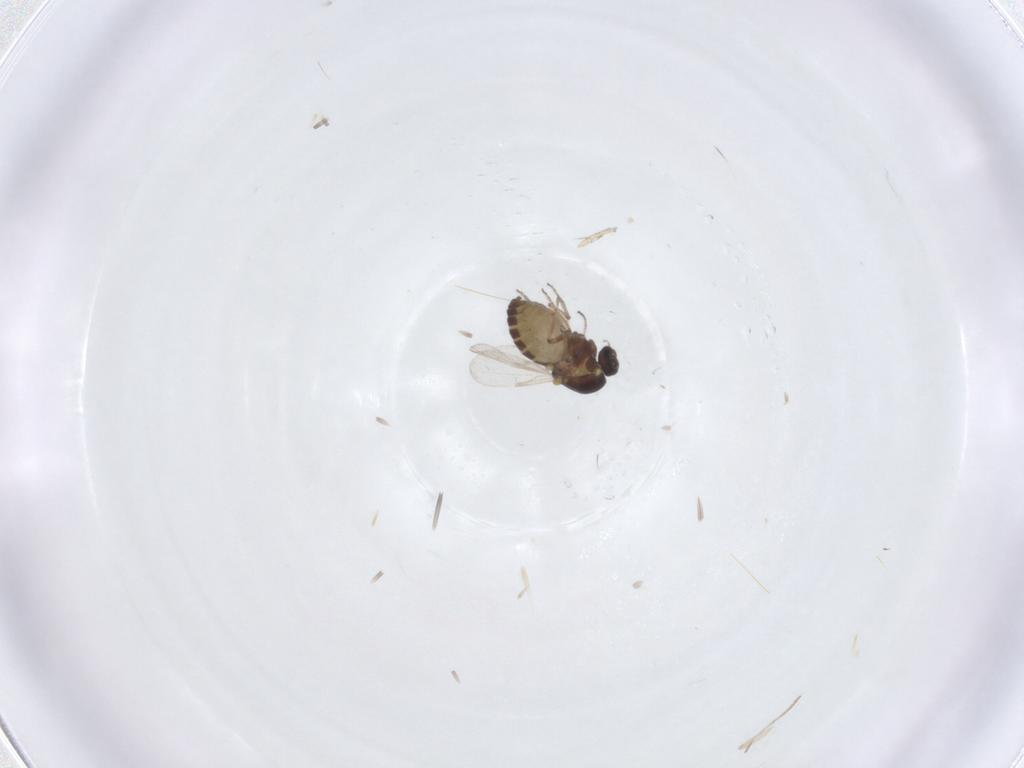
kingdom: Animalia
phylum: Arthropoda
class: Insecta
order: Diptera
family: Ceratopogonidae
